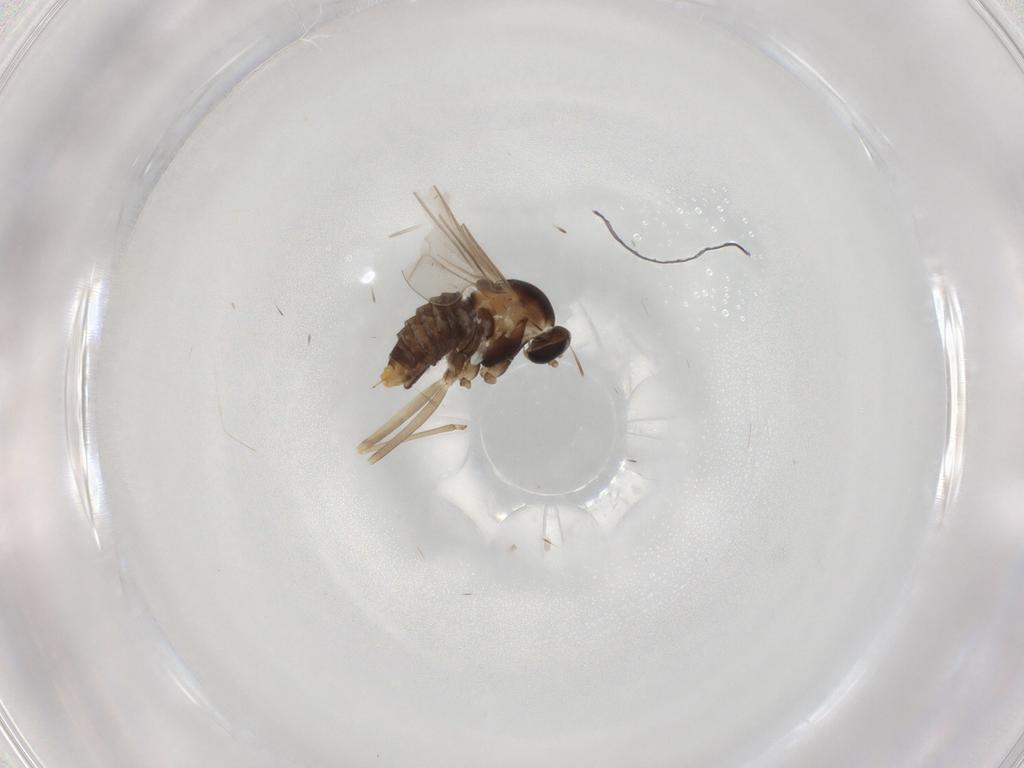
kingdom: Animalia
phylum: Arthropoda
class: Insecta
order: Diptera
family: Cecidomyiidae
